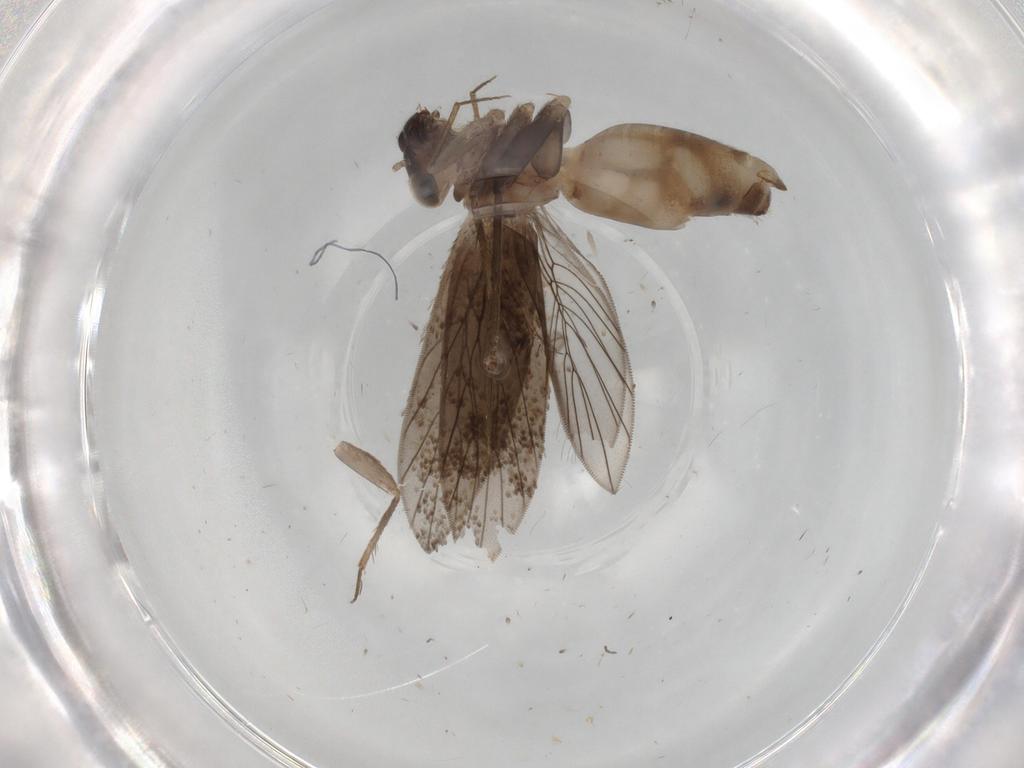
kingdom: Animalia
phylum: Arthropoda
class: Insecta
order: Psocodea
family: Lepidopsocidae
